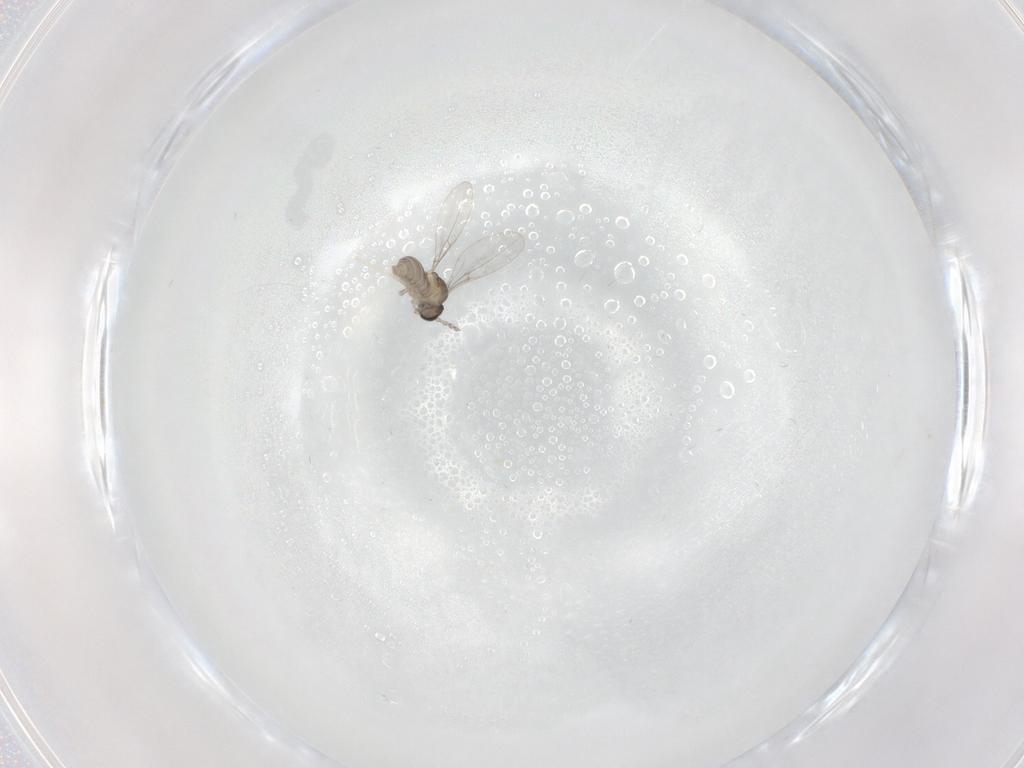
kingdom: Animalia
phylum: Arthropoda
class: Insecta
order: Diptera
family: Cecidomyiidae
